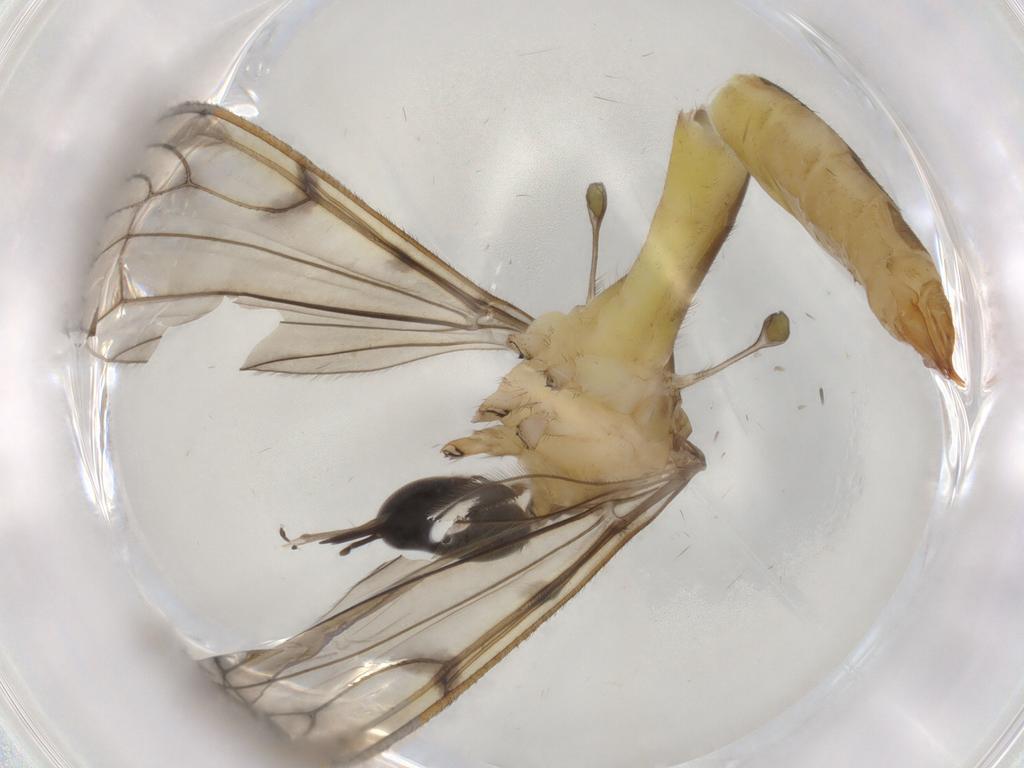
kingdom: Animalia
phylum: Arthropoda
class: Insecta
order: Diptera
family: Limoniidae
